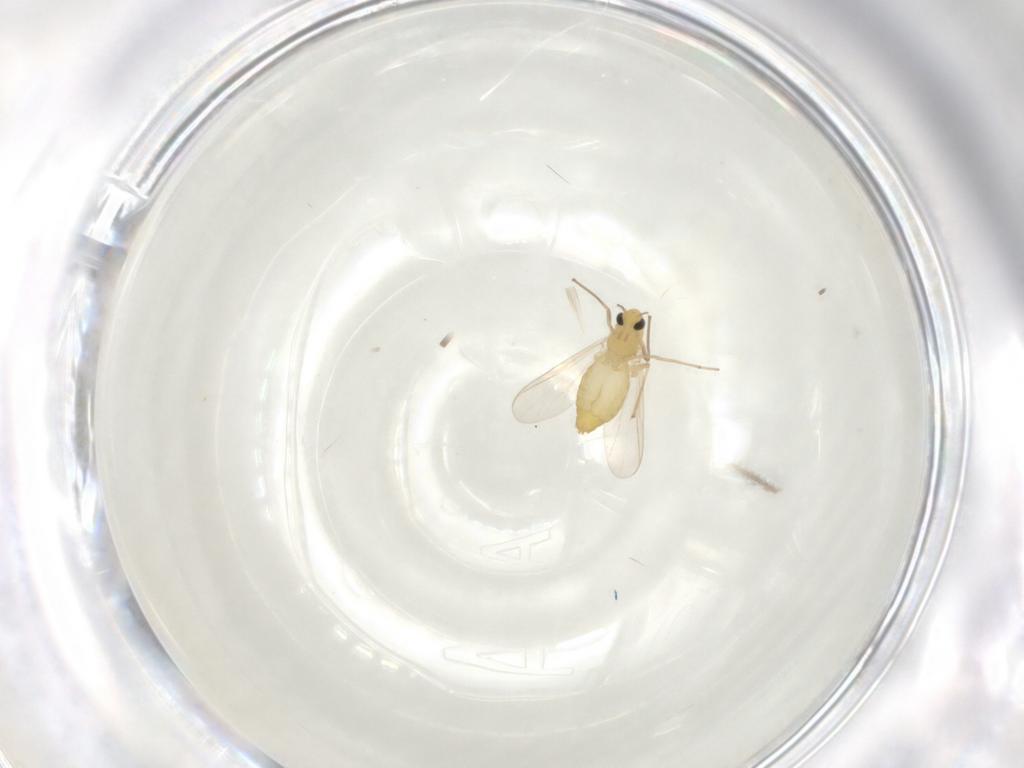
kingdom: Animalia
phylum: Arthropoda
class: Insecta
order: Diptera
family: Chironomidae
